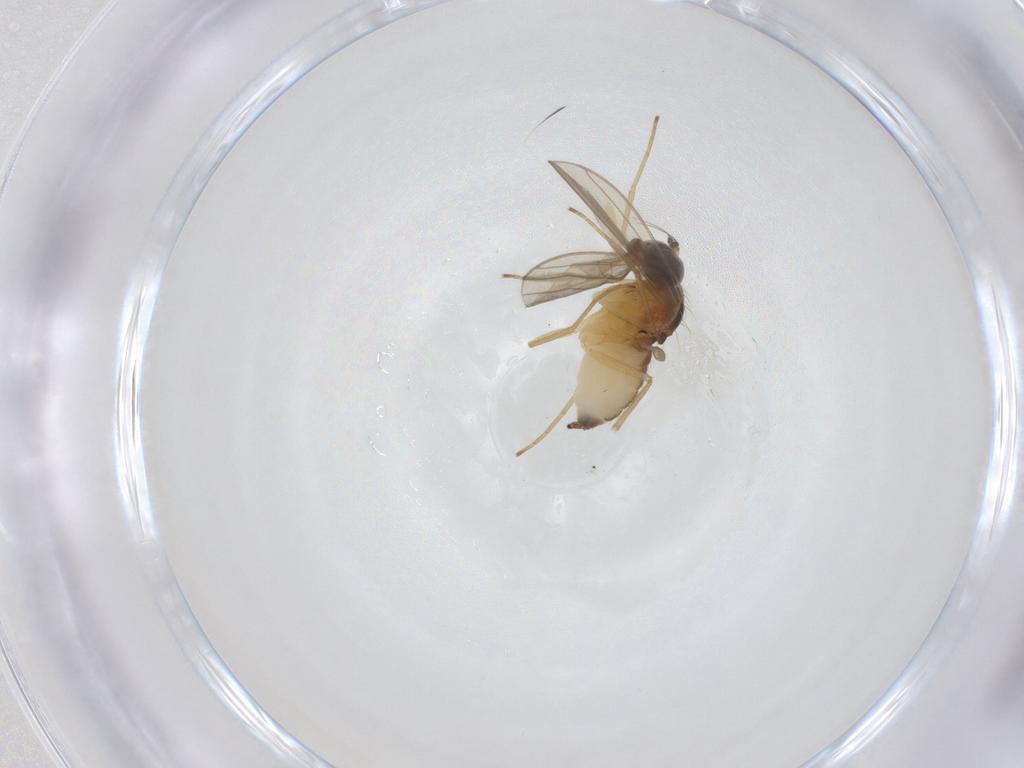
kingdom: Animalia
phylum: Arthropoda
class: Insecta
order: Diptera
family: Dolichopodidae
